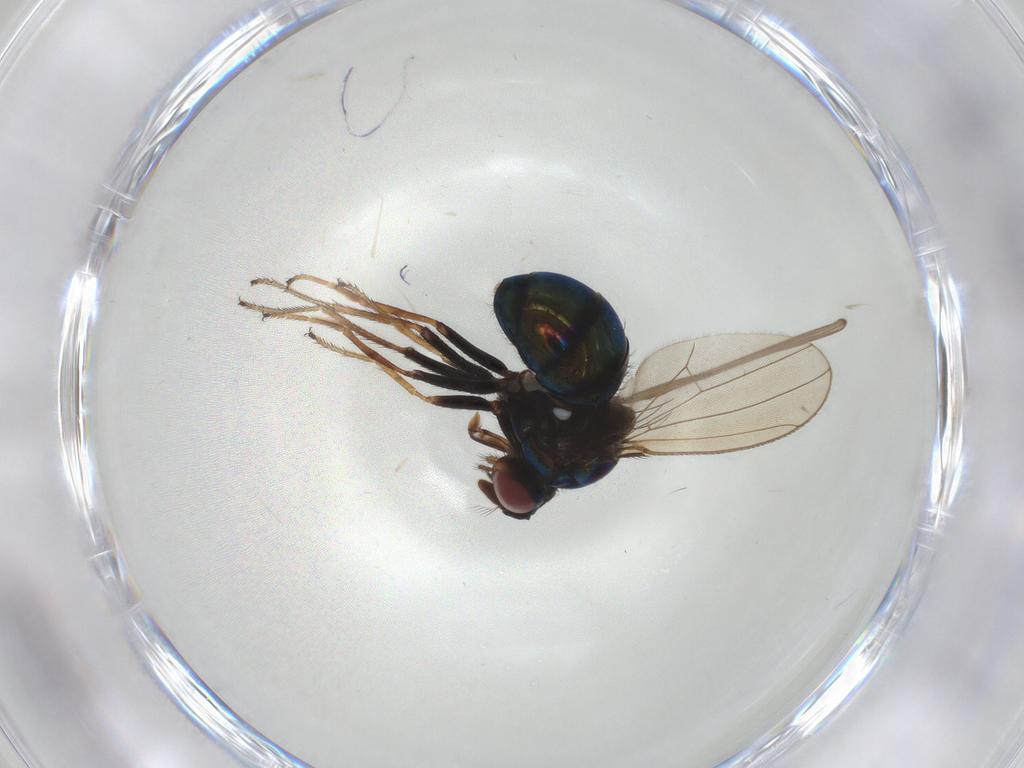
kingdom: Animalia
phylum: Arthropoda
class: Insecta
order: Diptera
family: Ephydridae
